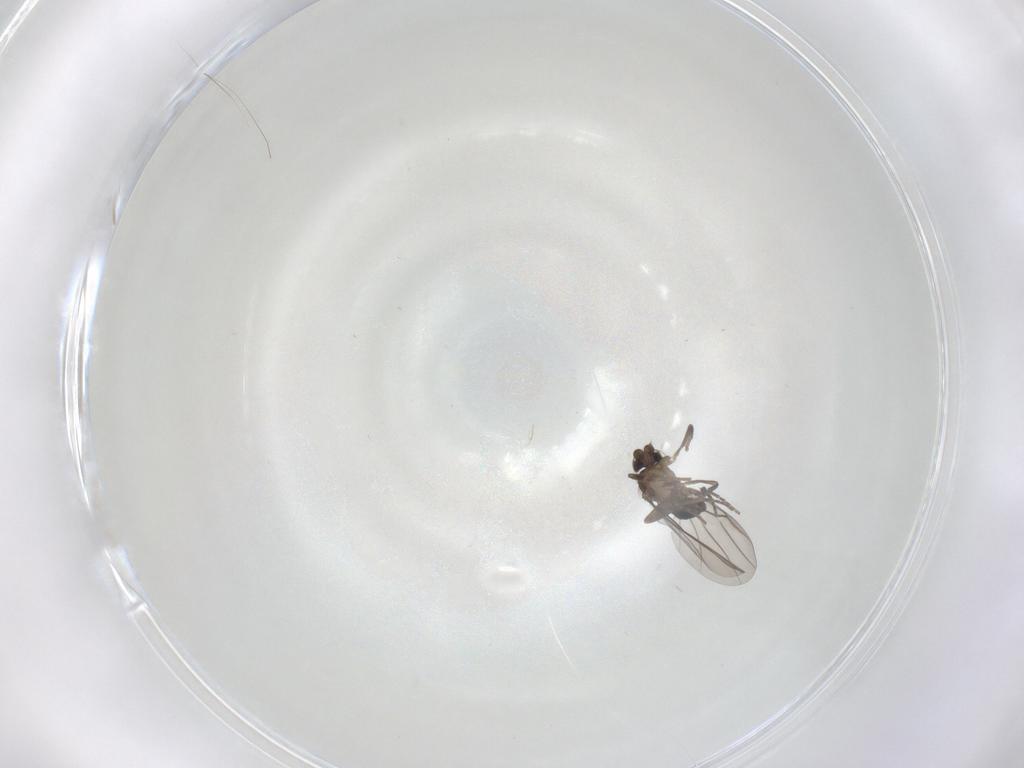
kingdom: Animalia
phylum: Arthropoda
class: Insecta
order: Diptera
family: Phoridae
